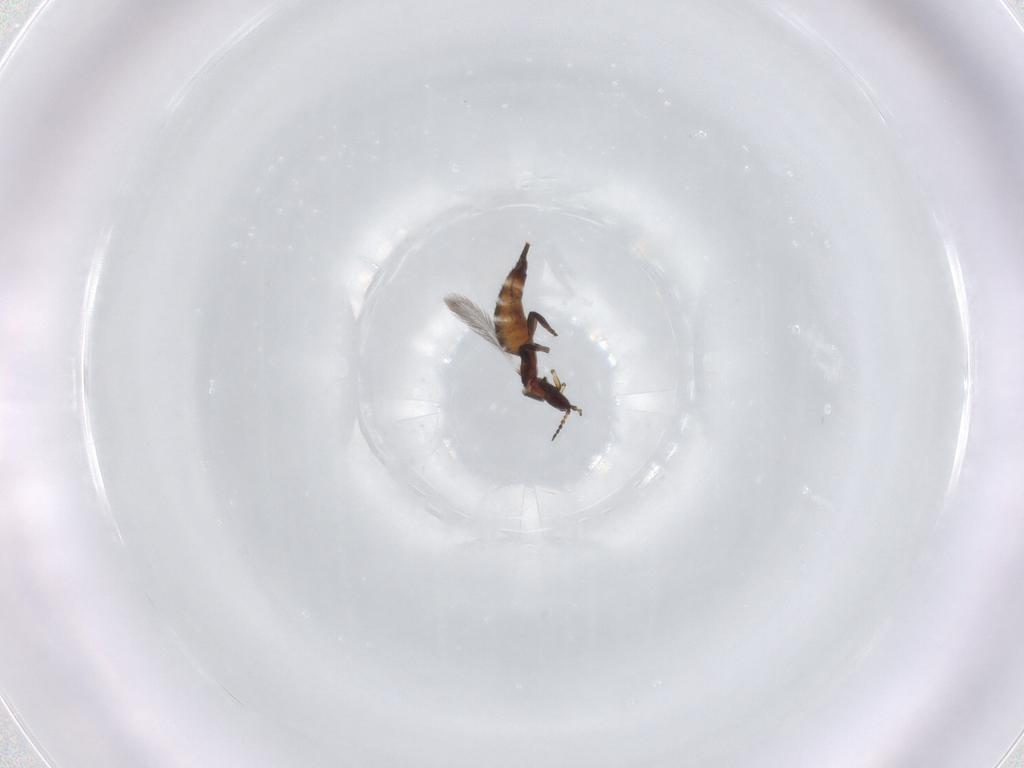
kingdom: Animalia
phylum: Arthropoda
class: Insecta
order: Thysanoptera
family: Phlaeothripidae
